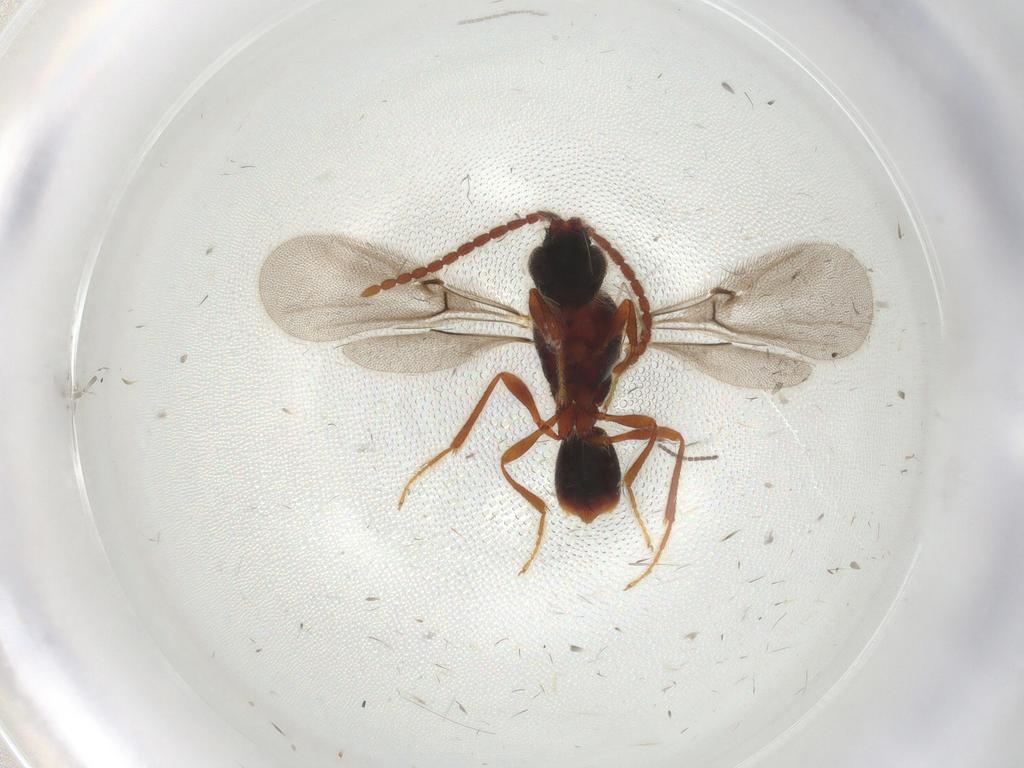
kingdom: Animalia
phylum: Arthropoda
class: Insecta
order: Hymenoptera
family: Diapriidae
